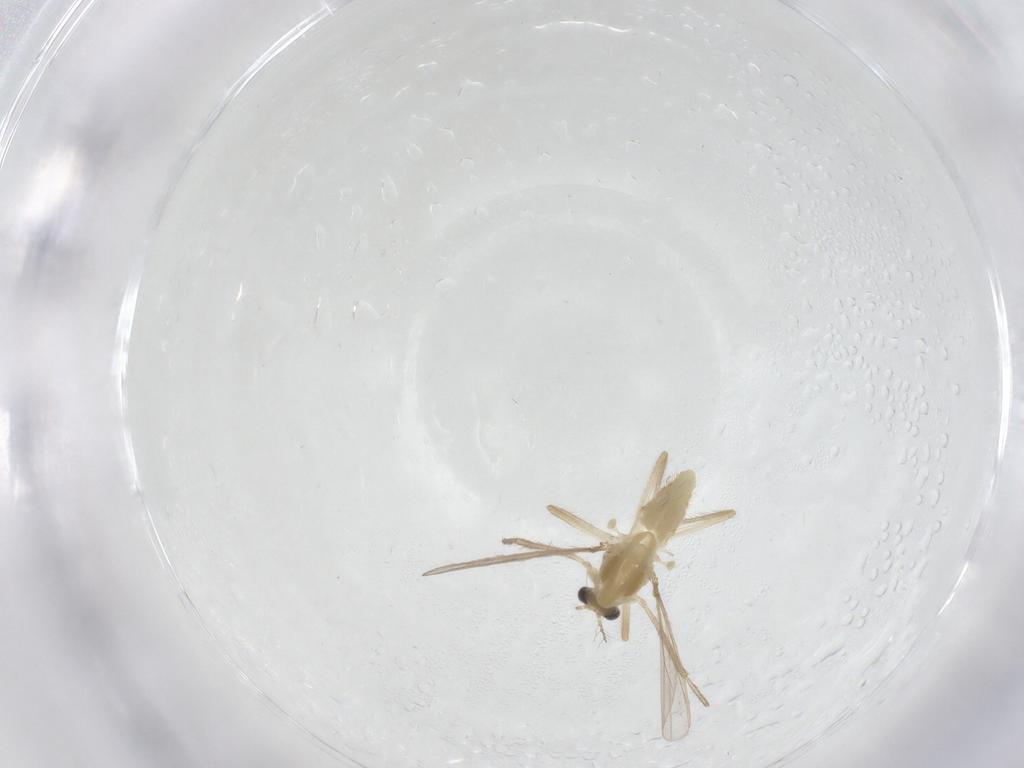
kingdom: Animalia
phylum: Arthropoda
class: Insecta
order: Diptera
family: Chironomidae
